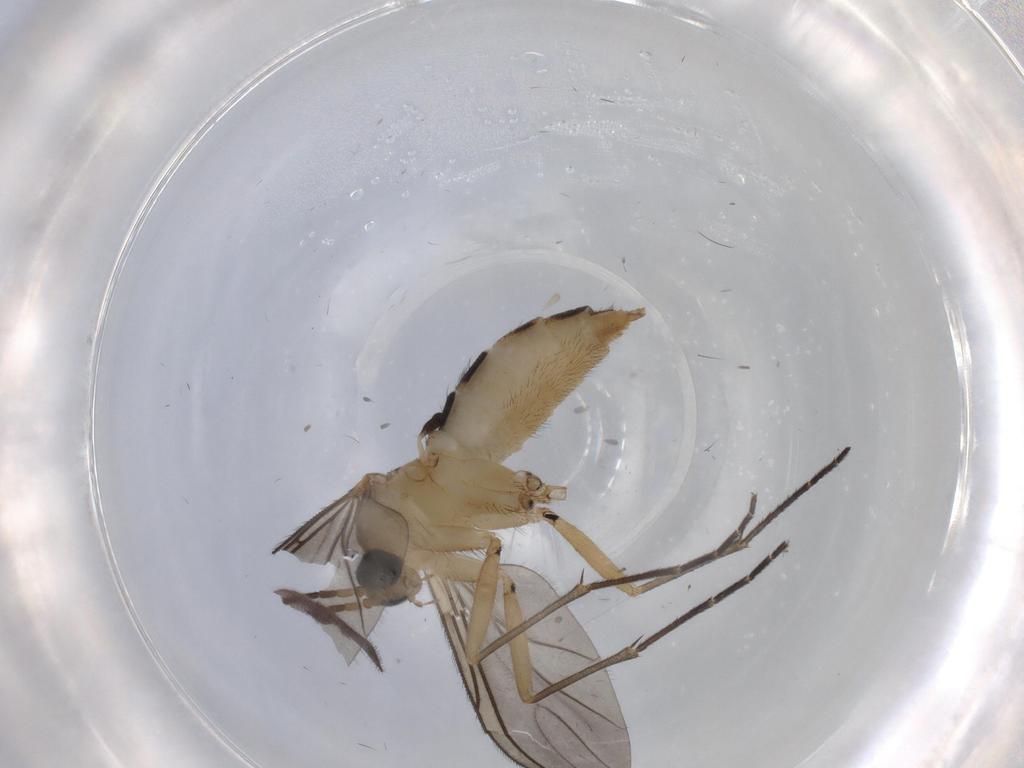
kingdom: Animalia
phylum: Arthropoda
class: Insecta
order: Diptera
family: Sciaridae
